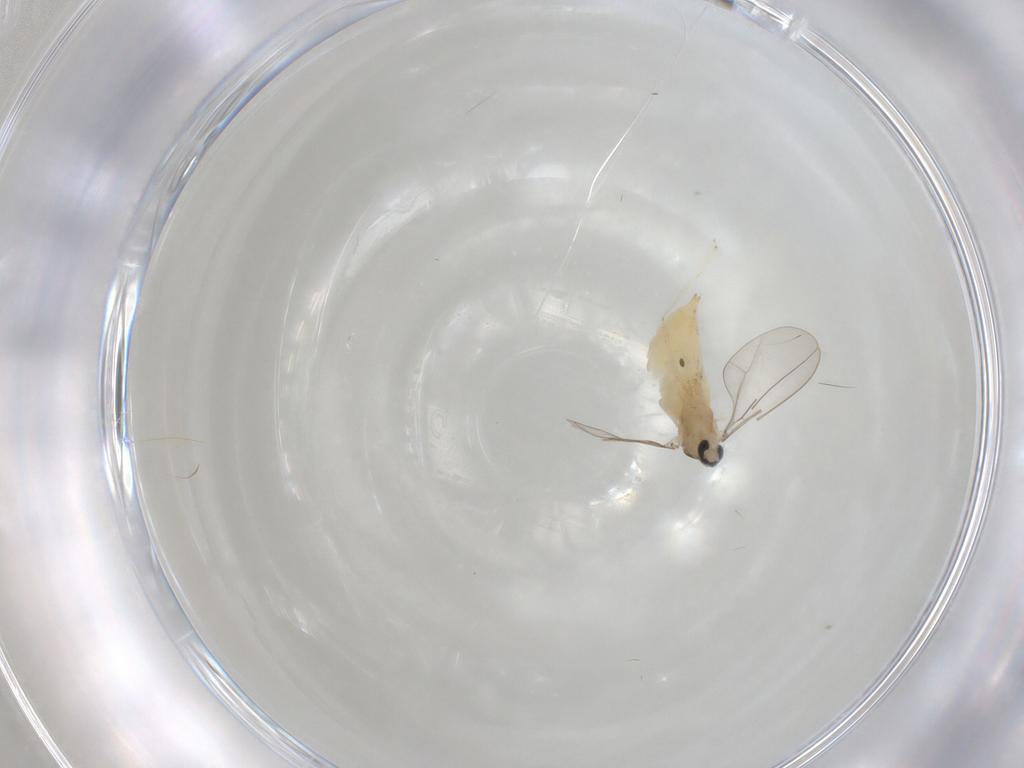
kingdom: Animalia
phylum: Arthropoda
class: Insecta
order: Diptera
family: Cecidomyiidae
